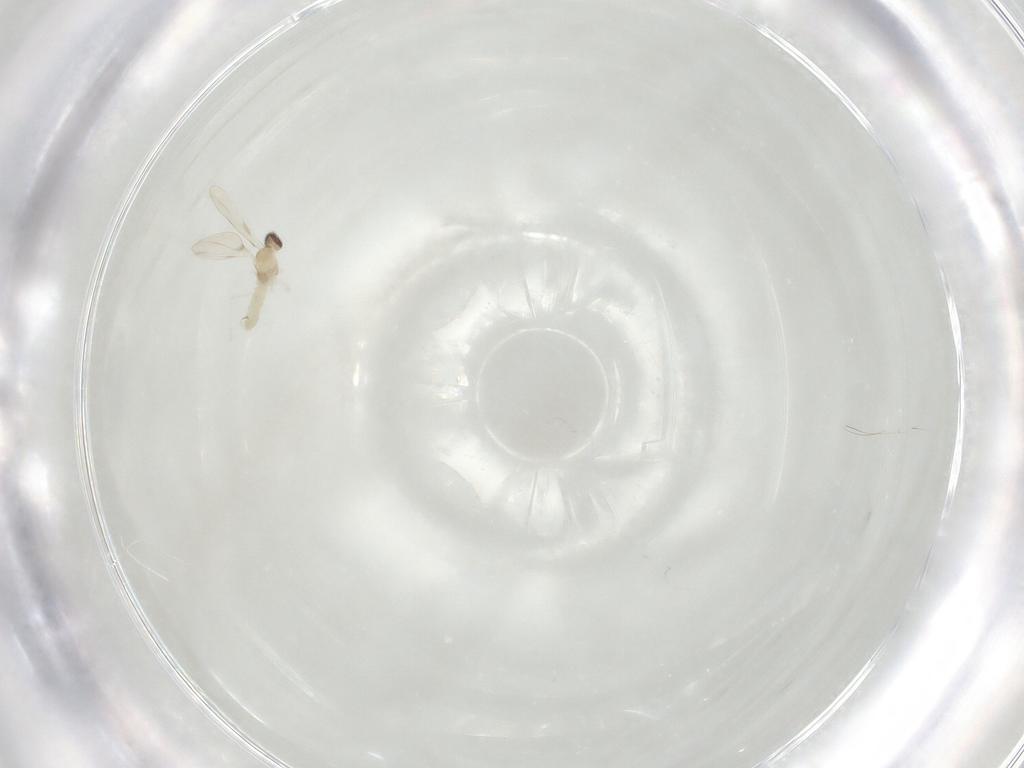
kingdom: Animalia
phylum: Arthropoda
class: Insecta
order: Diptera
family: Cecidomyiidae
